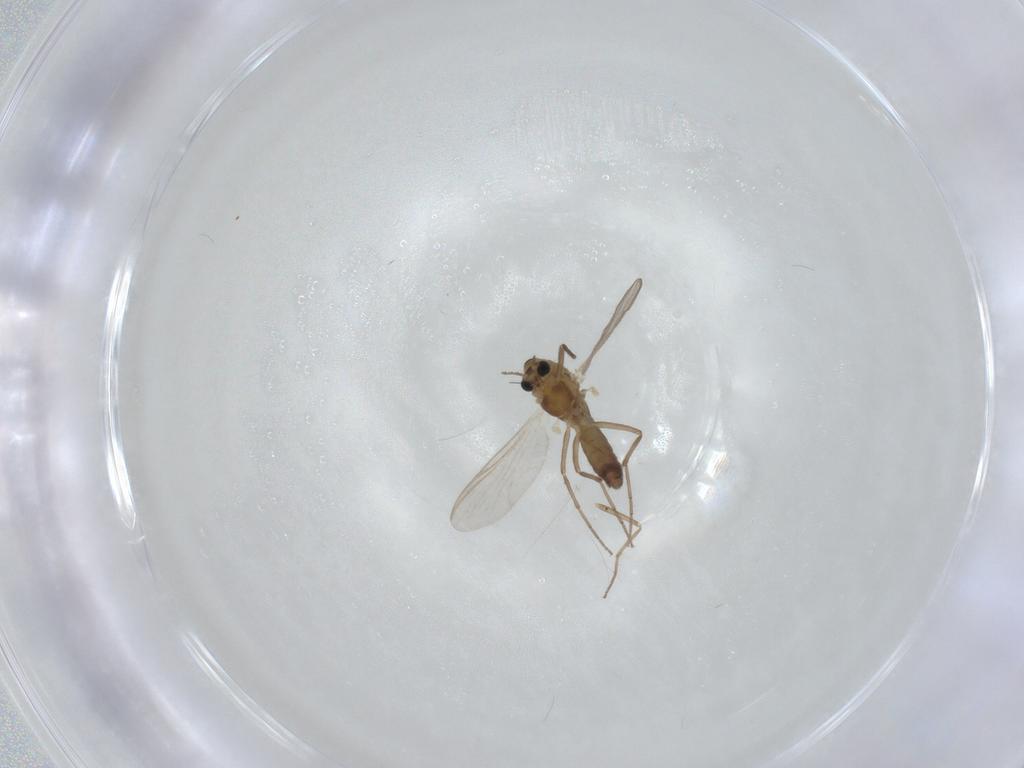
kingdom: Animalia
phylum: Arthropoda
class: Insecta
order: Diptera
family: Chironomidae
